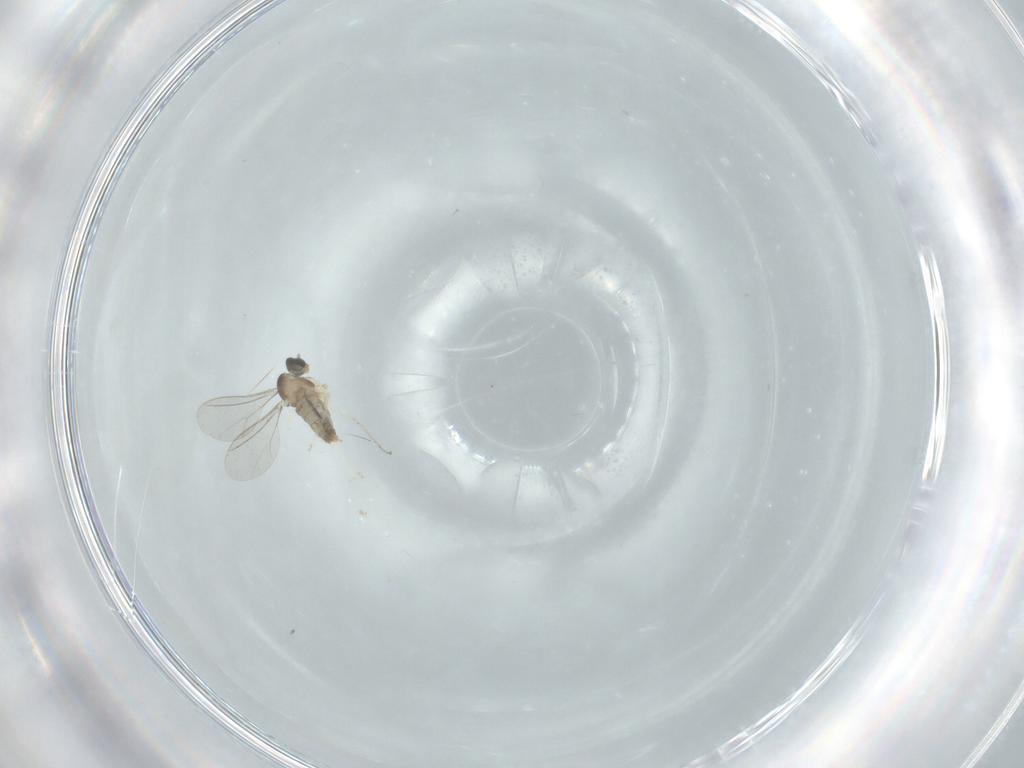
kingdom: Animalia
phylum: Arthropoda
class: Insecta
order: Diptera
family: Cecidomyiidae
